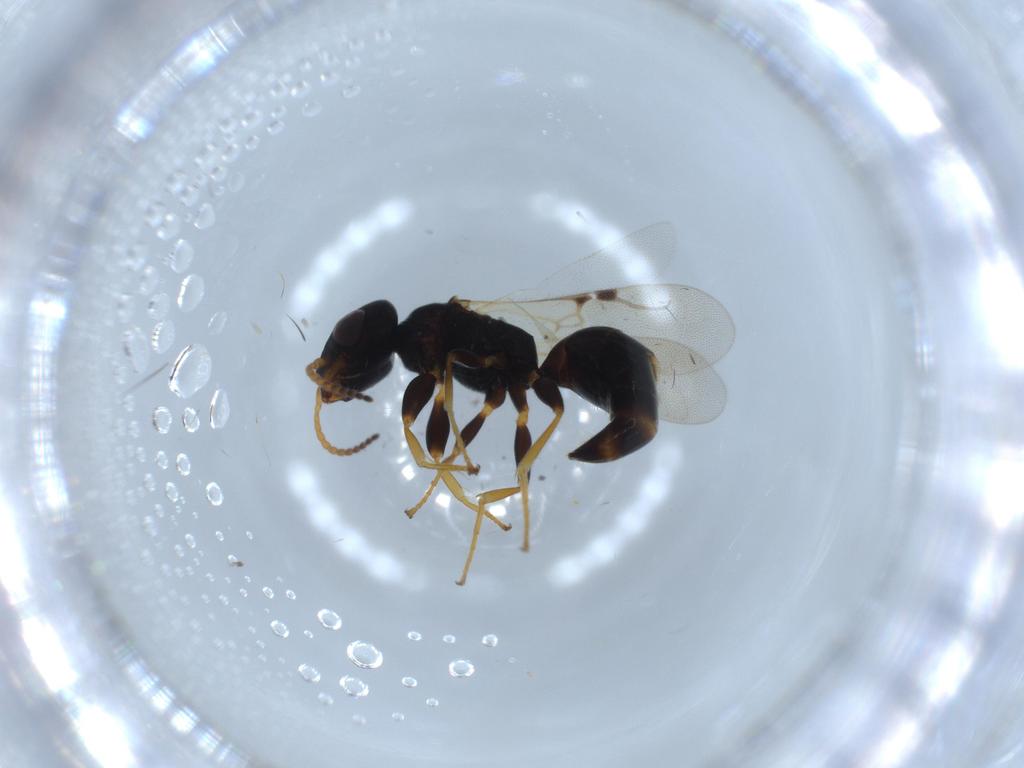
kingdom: Animalia
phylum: Arthropoda
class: Insecta
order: Hymenoptera
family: Bethylidae
